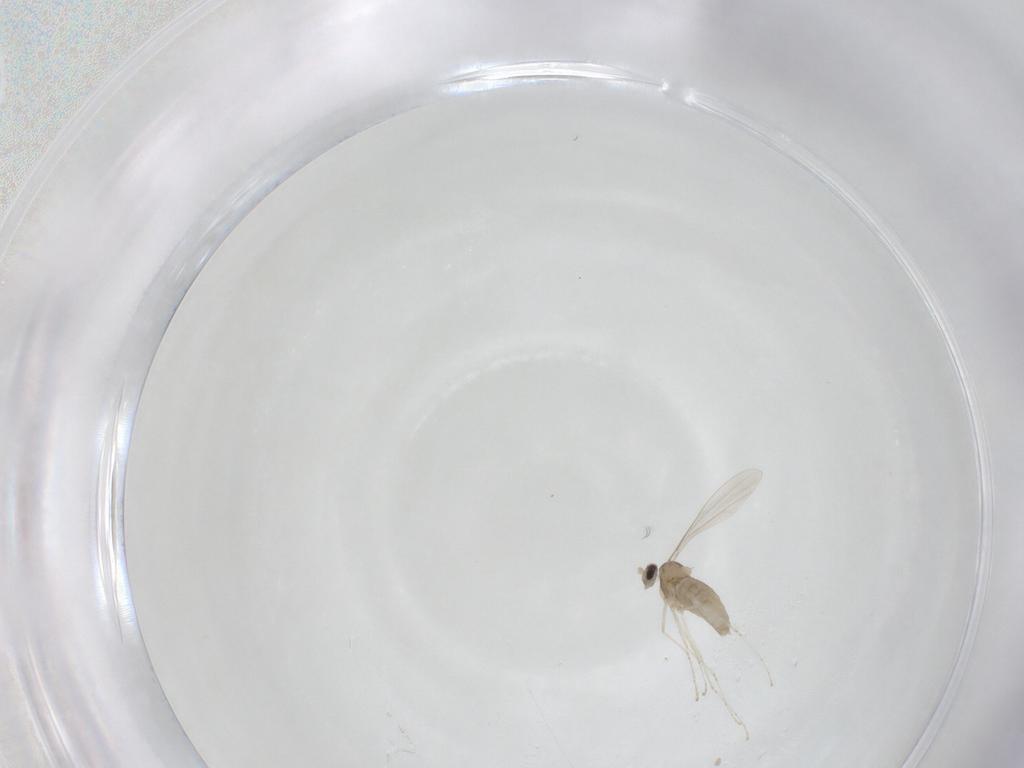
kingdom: Animalia
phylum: Arthropoda
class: Insecta
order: Diptera
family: Cecidomyiidae
